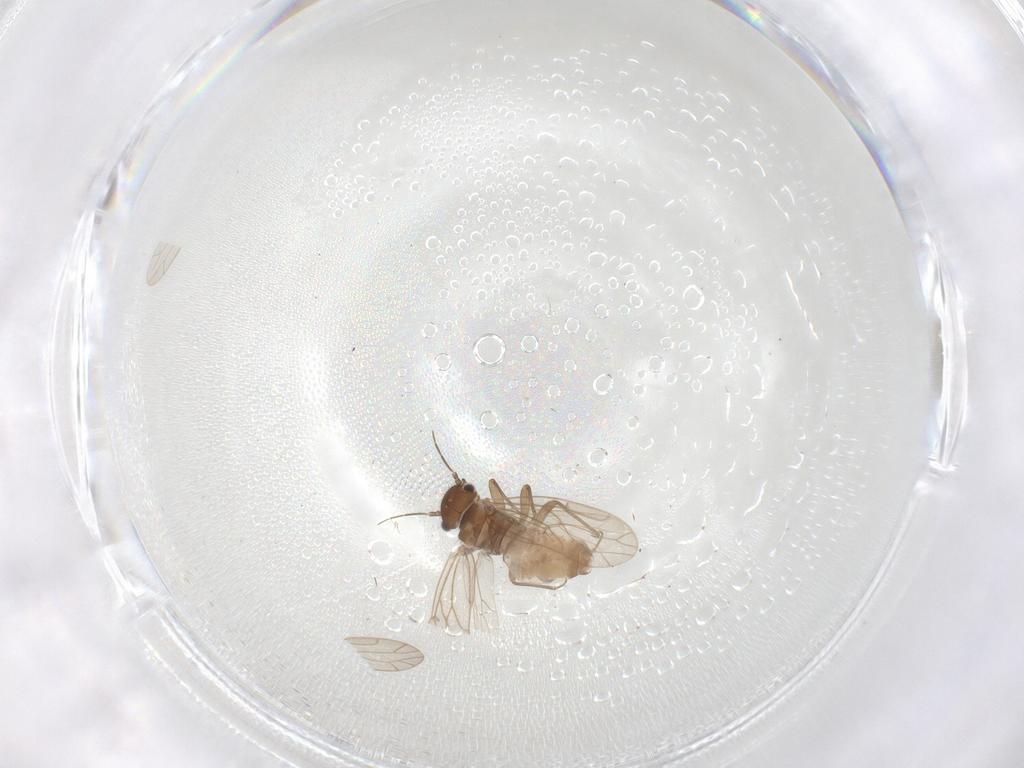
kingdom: Animalia
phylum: Arthropoda
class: Insecta
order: Psocodea
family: Ectopsocidae
